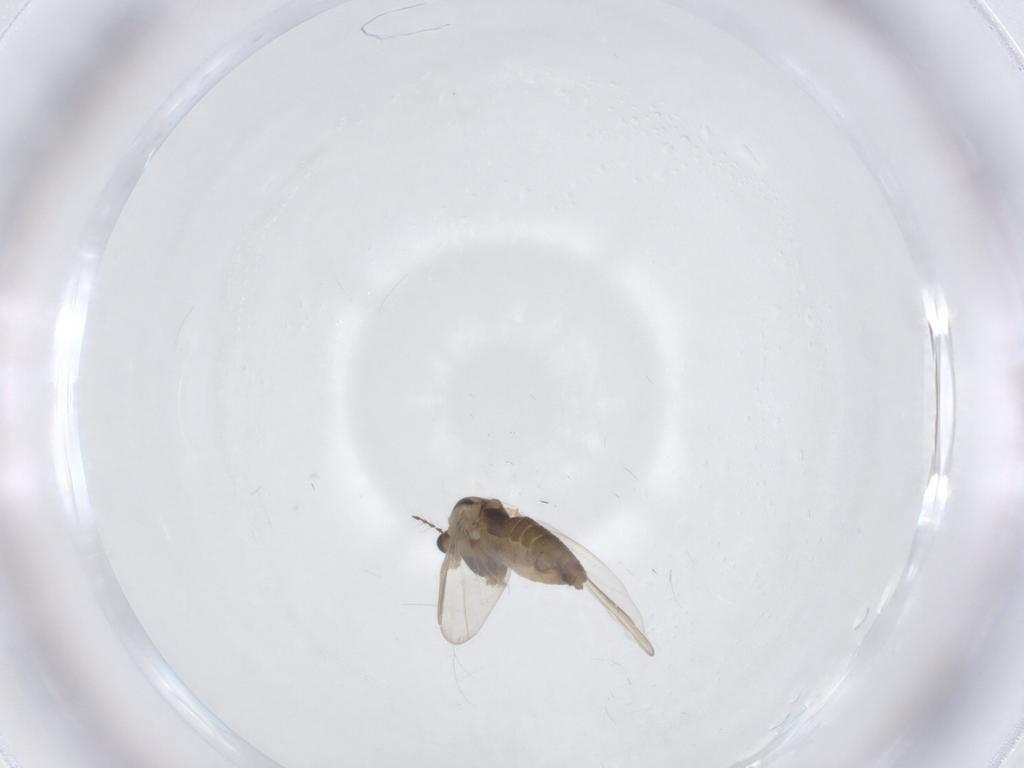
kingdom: Animalia
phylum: Arthropoda
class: Insecta
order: Diptera
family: Chironomidae
